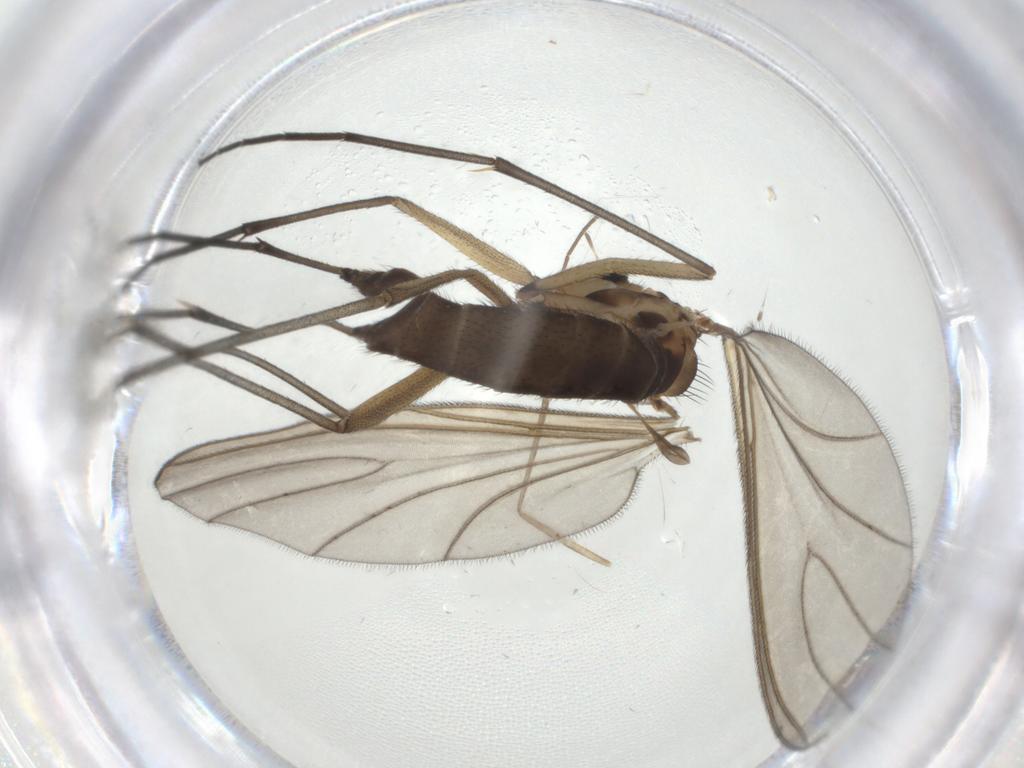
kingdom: Animalia
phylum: Arthropoda
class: Insecta
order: Diptera
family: Sciaridae
